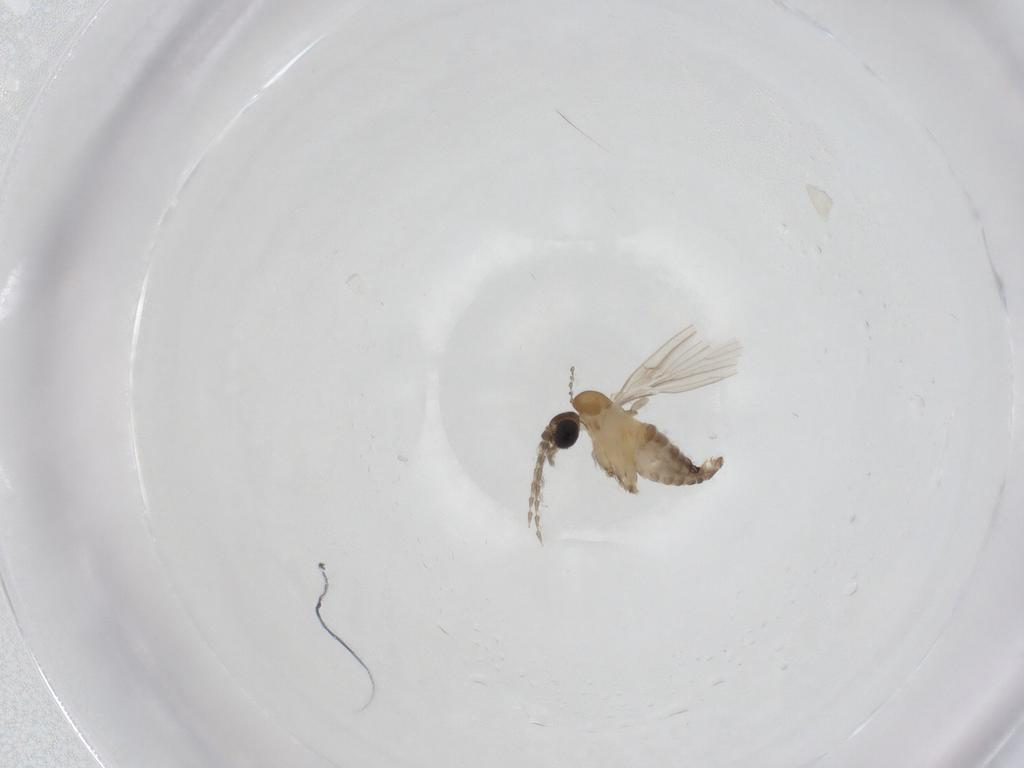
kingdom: Animalia
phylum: Arthropoda
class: Insecta
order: Diptera
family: Psychodidae
